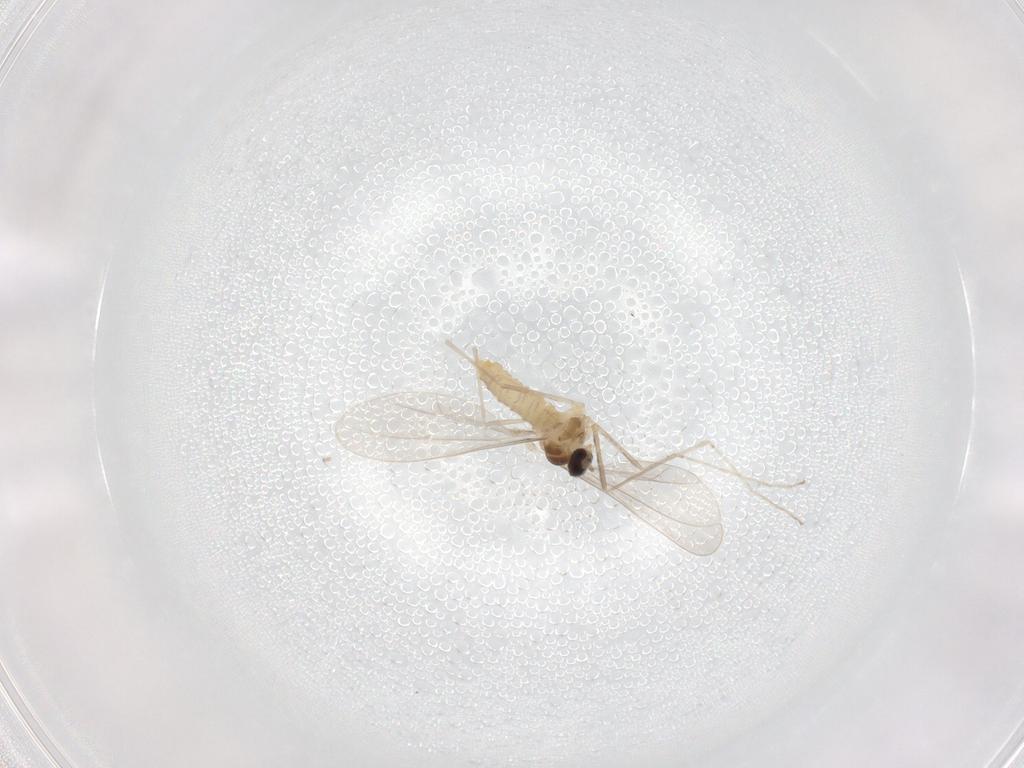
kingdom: Animalia
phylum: Arthropoda
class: Insecta
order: Diptera
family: Cecidomyiidae
